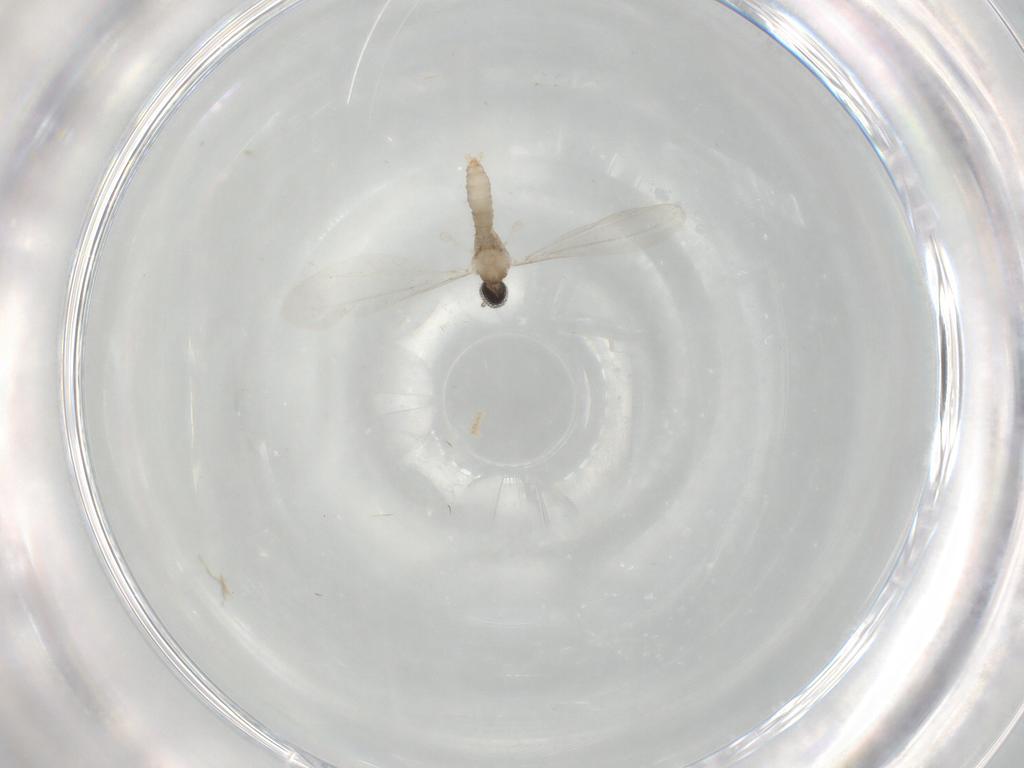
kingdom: Animalia
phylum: Arthropoda
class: Insecta
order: Diptera
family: Cecidomyiidae
